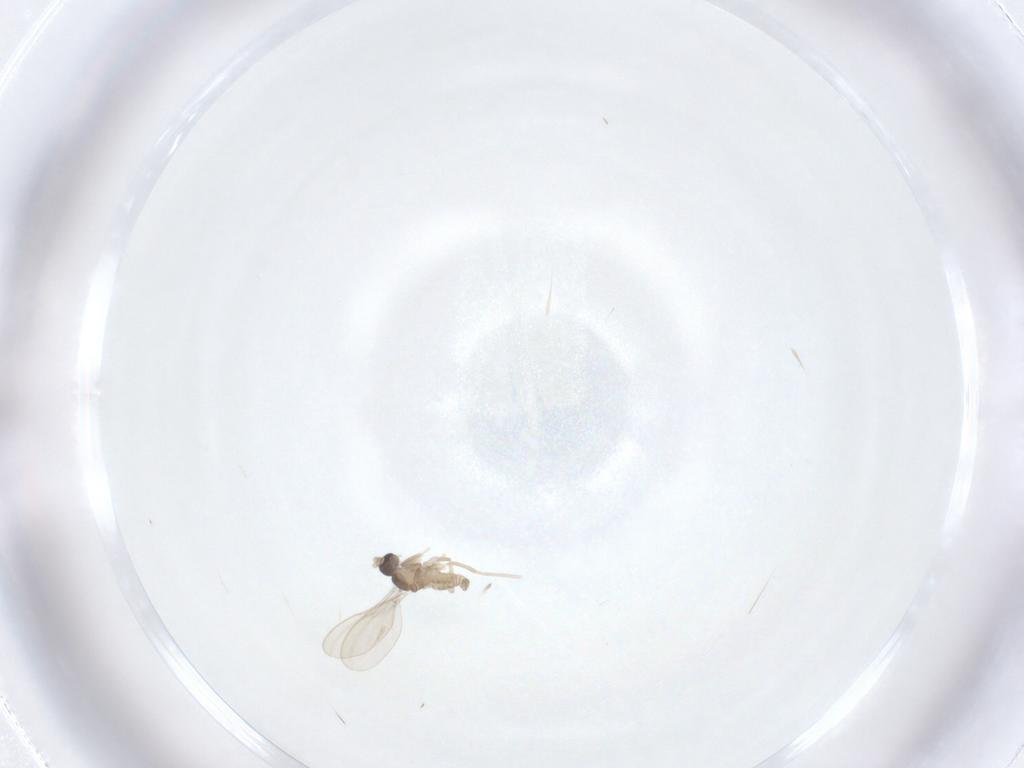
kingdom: Animalia
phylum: Arthropoda
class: Insecta
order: Diptera
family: Cecidomyiidae
